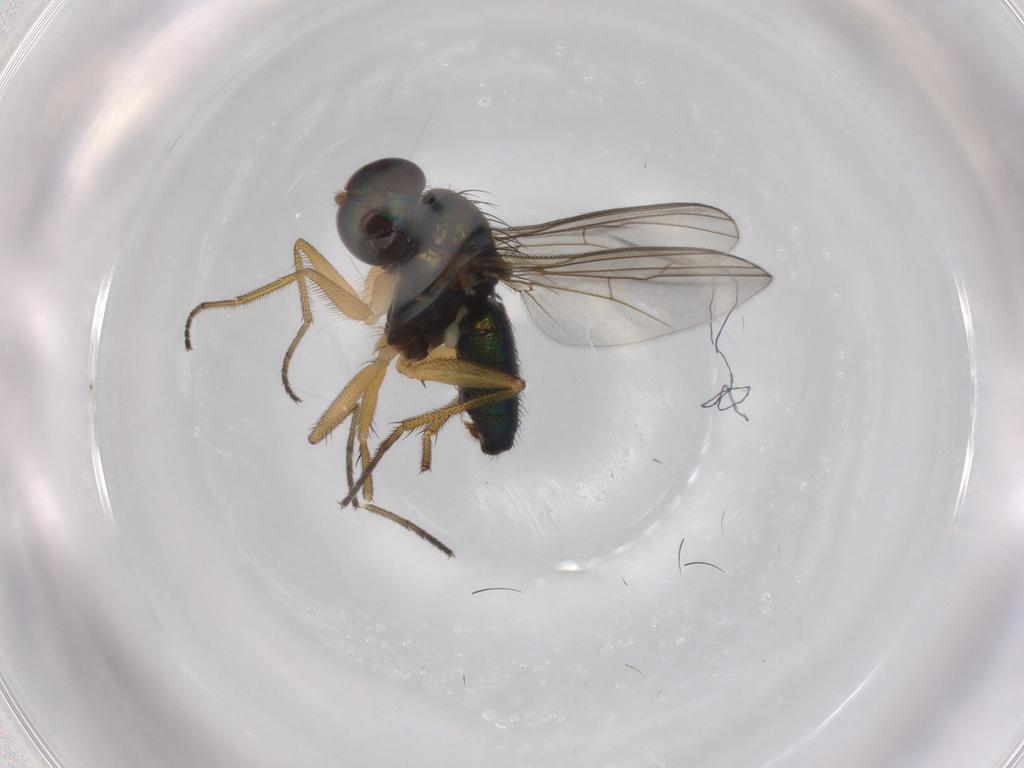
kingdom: Animalia
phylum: Arthropoda
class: Insecta
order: Diptera
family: Dolichopodidae
